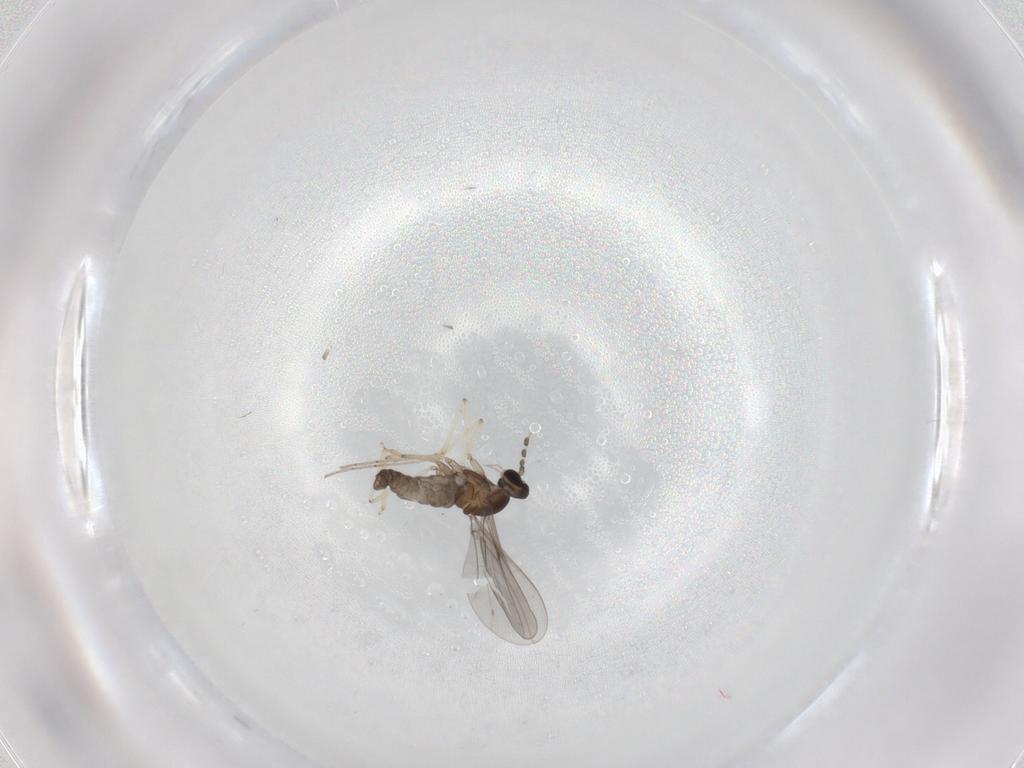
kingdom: Animalia
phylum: Arthropoda
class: Insecta
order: Diptera
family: Cecidomyiidae
